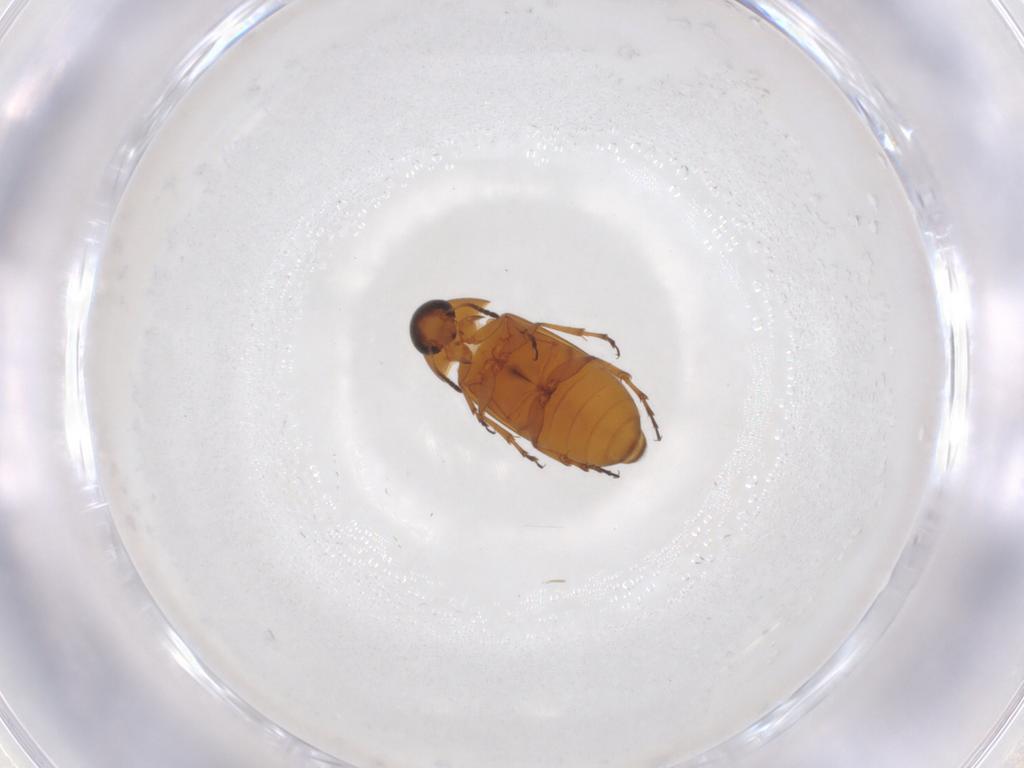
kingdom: Animalia
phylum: Arthropoda
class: Insecta
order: Coleoptera
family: Scraptiidae
